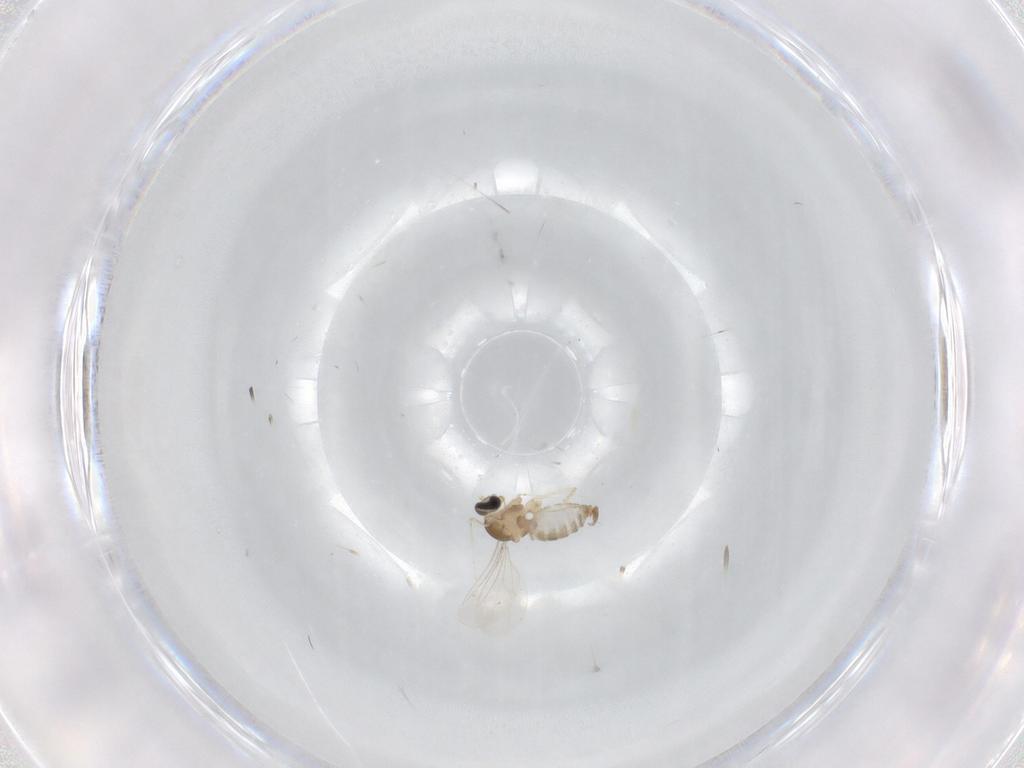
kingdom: Animalia
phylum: Arthropoda
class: Insecta
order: Diptera
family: Cecidomyiidae
